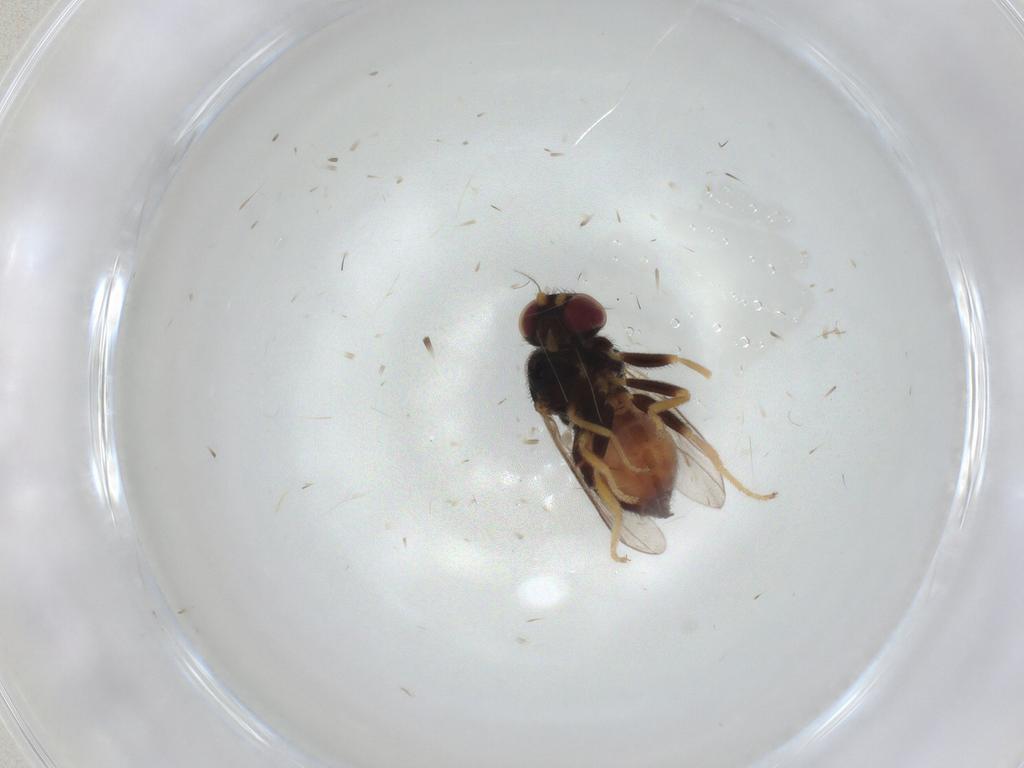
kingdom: Animalia
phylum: Arthropoda
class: Insecta
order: Diptera
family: Cecidomyiidae
